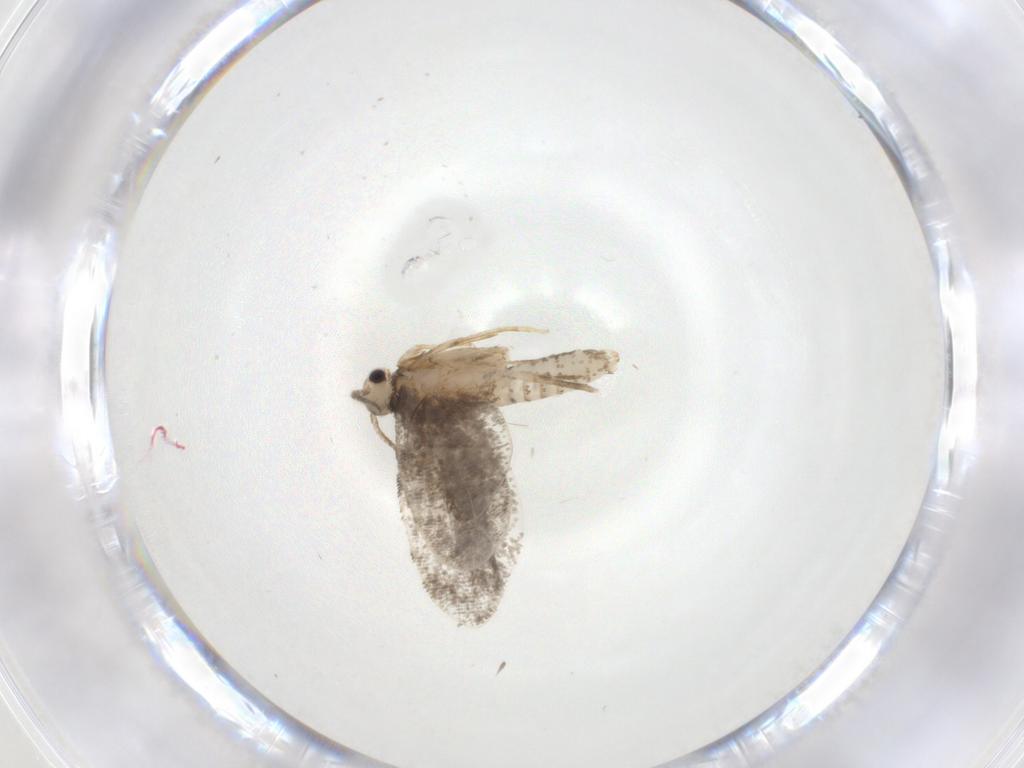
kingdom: Animalia
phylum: Arthropoda
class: Insecta
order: Lepidoptera
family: Psychidae
